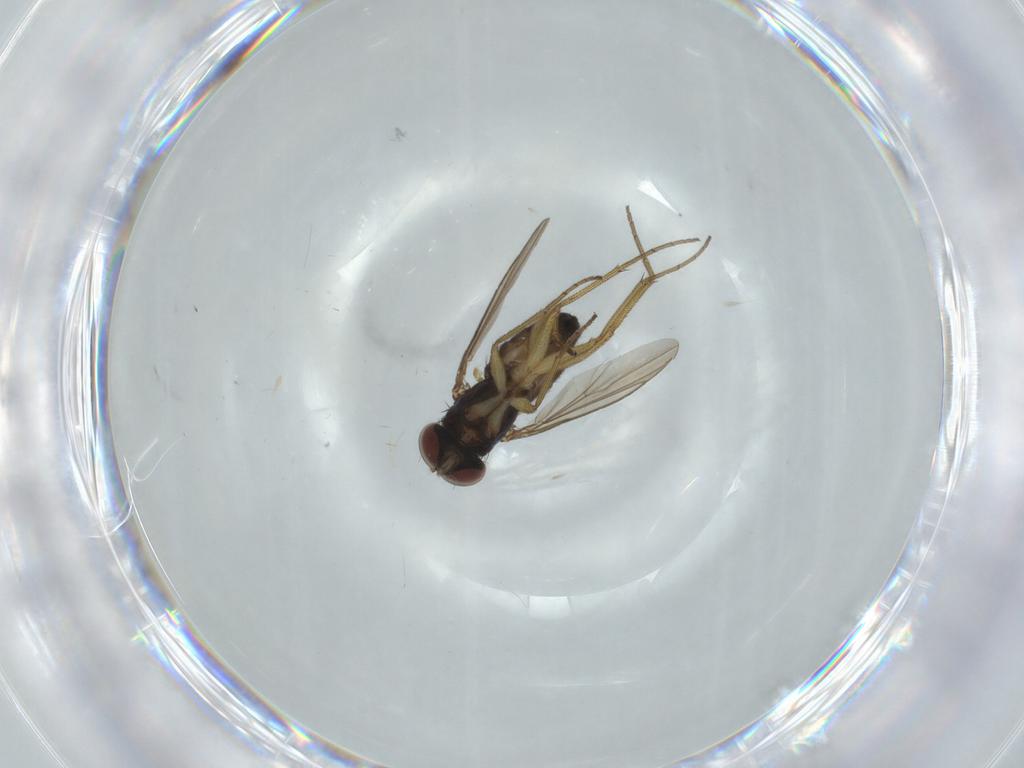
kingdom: Animalia
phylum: Arthropoda
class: Insecta
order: Diptera
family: Dolichopodidae
